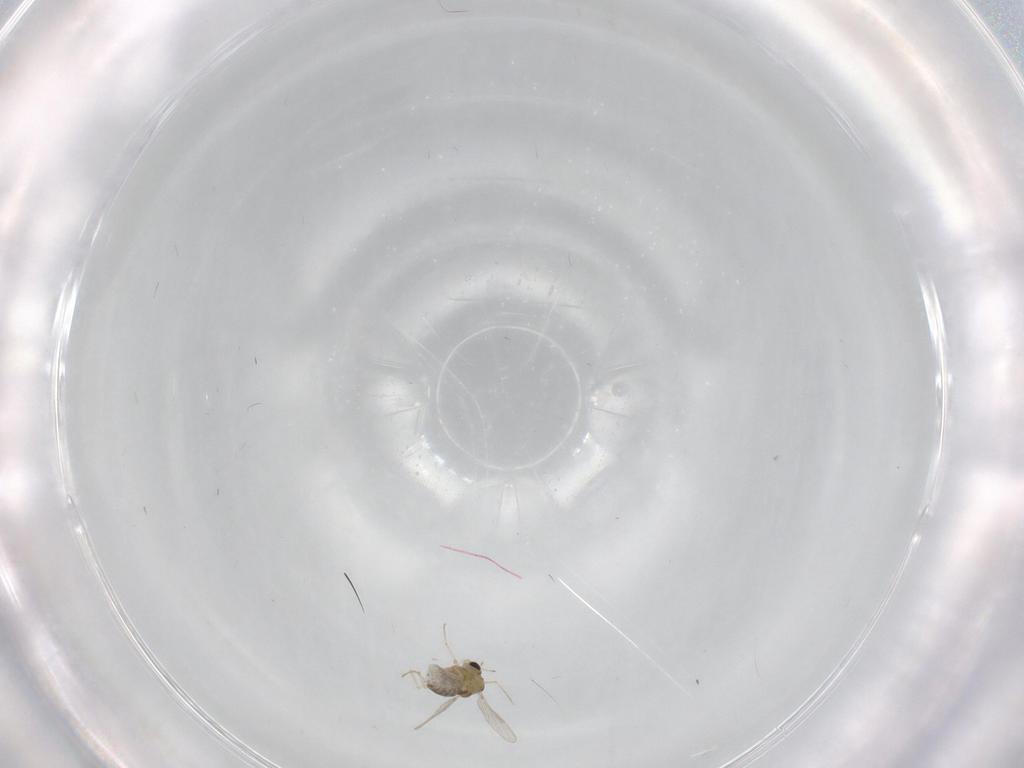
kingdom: Animalia
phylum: Arthropoda
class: Insecta
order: Diptera
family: Chironomidae
